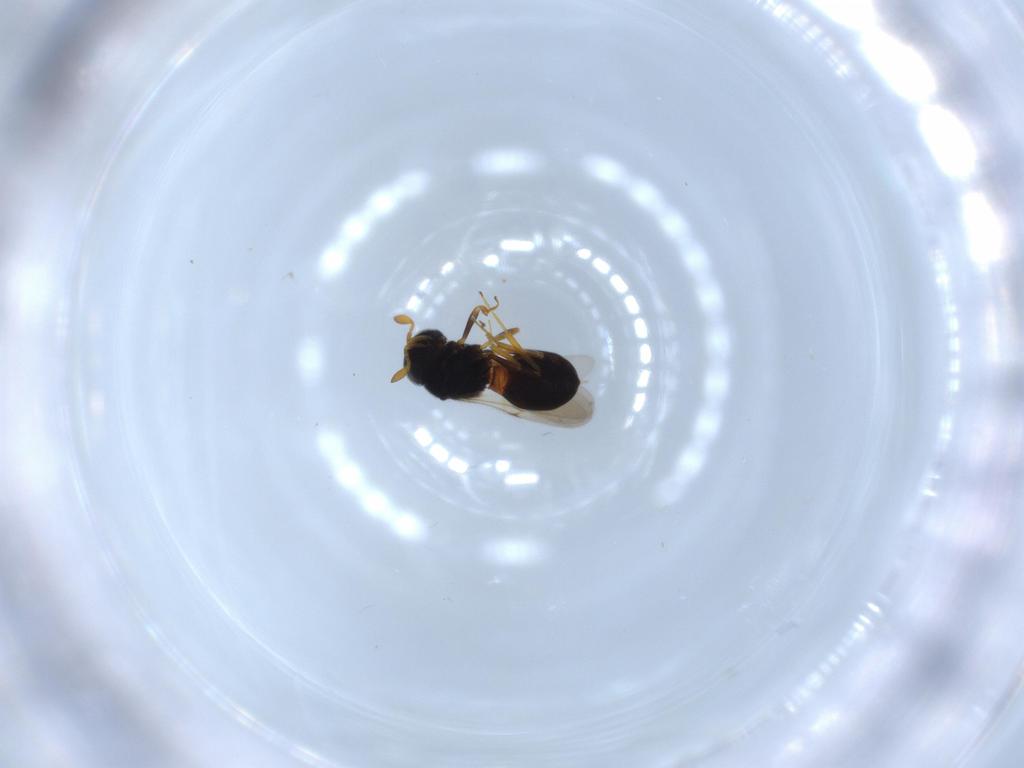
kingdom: Animalia
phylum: Arthropoda
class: Insecta
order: Hymenoptera
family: Scelionidae
